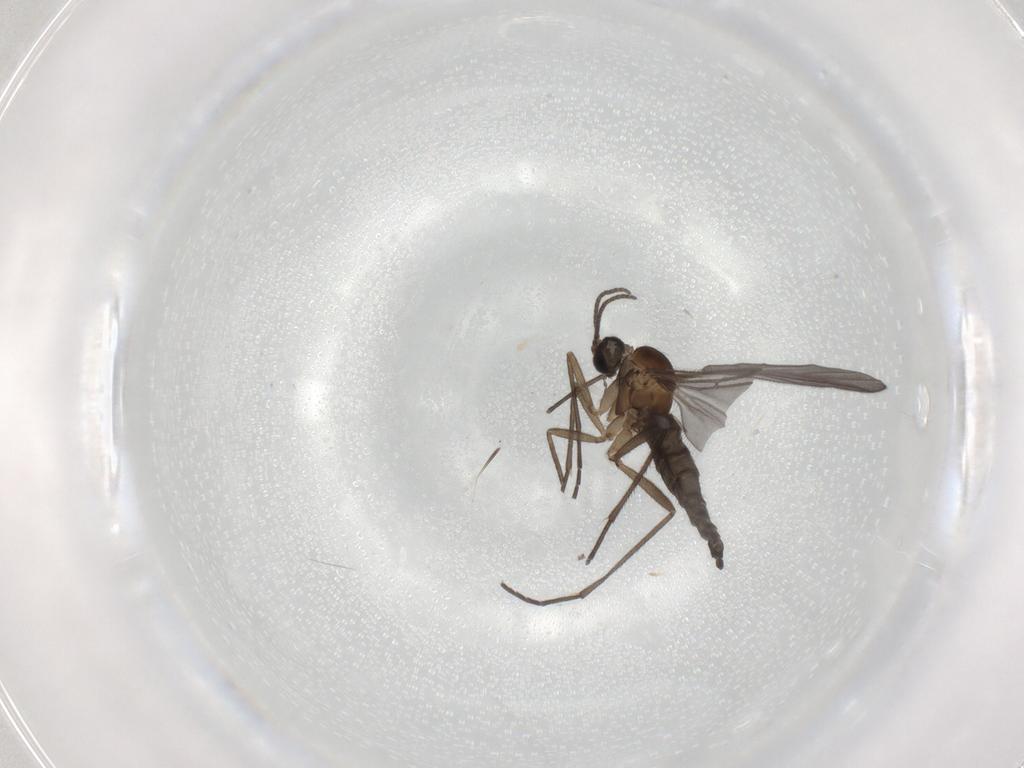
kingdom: Animalia
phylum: Arthropoda
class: Insecta
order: Diptera
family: Sciaridae
